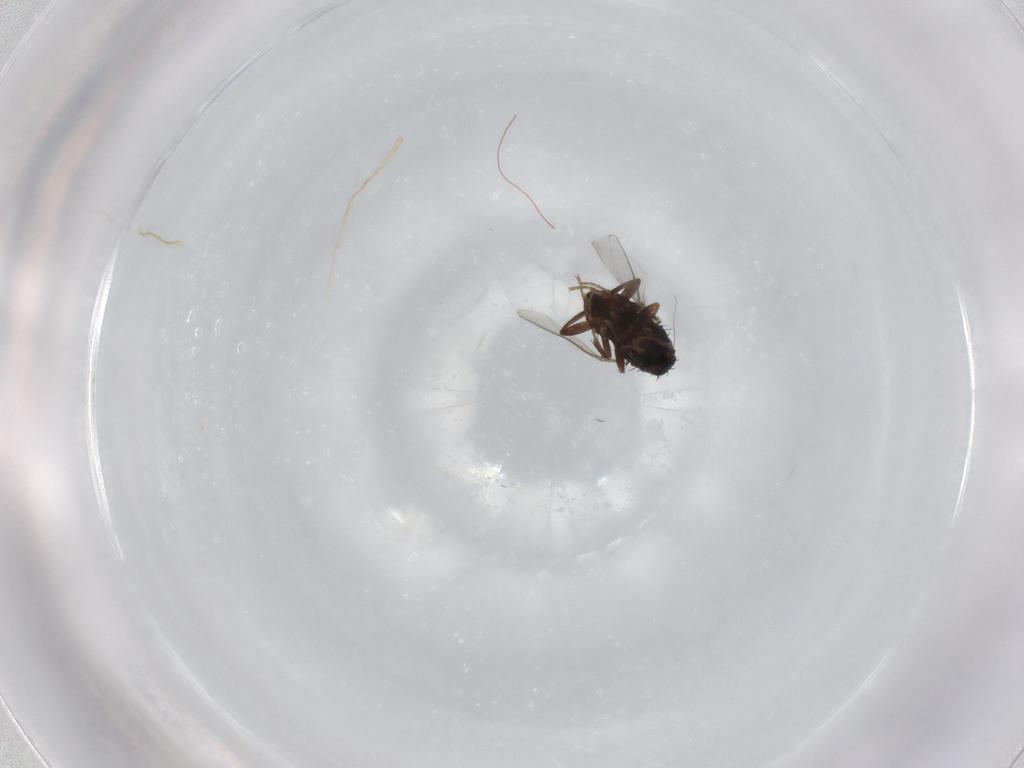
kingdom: Animalia
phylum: Arthropoda
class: Insecta
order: Diptera
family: Sphaeroceridae
